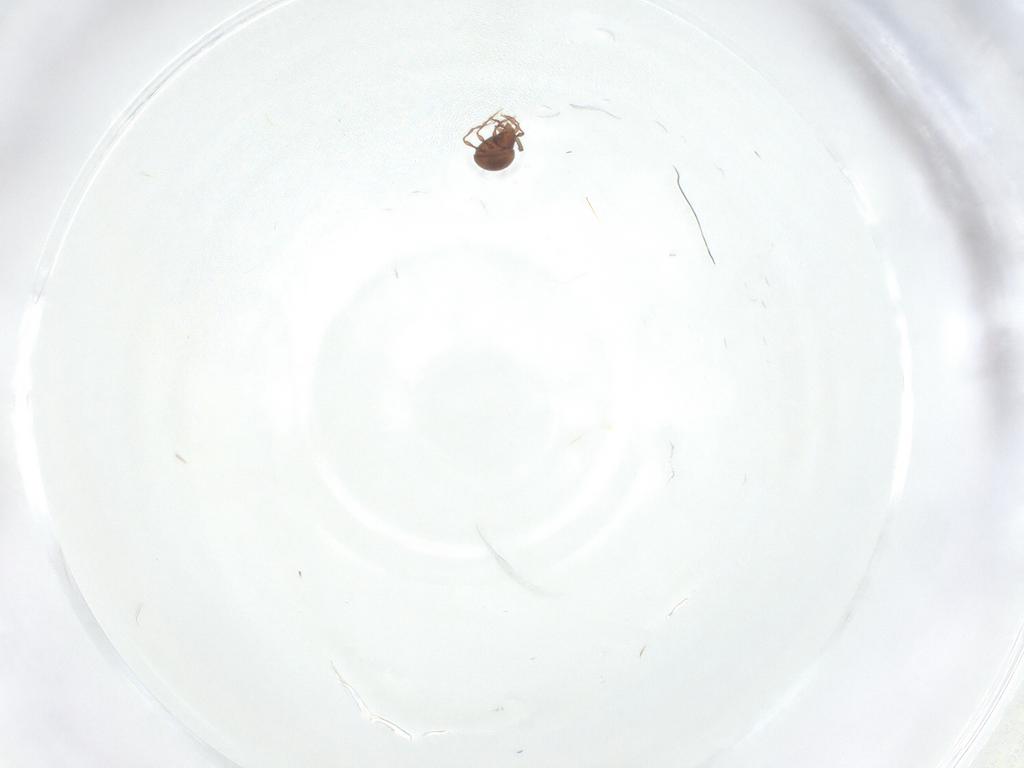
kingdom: Animalia
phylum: Arthropoda
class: Arachnida
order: Sarcoptiformes
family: Oppiidae
